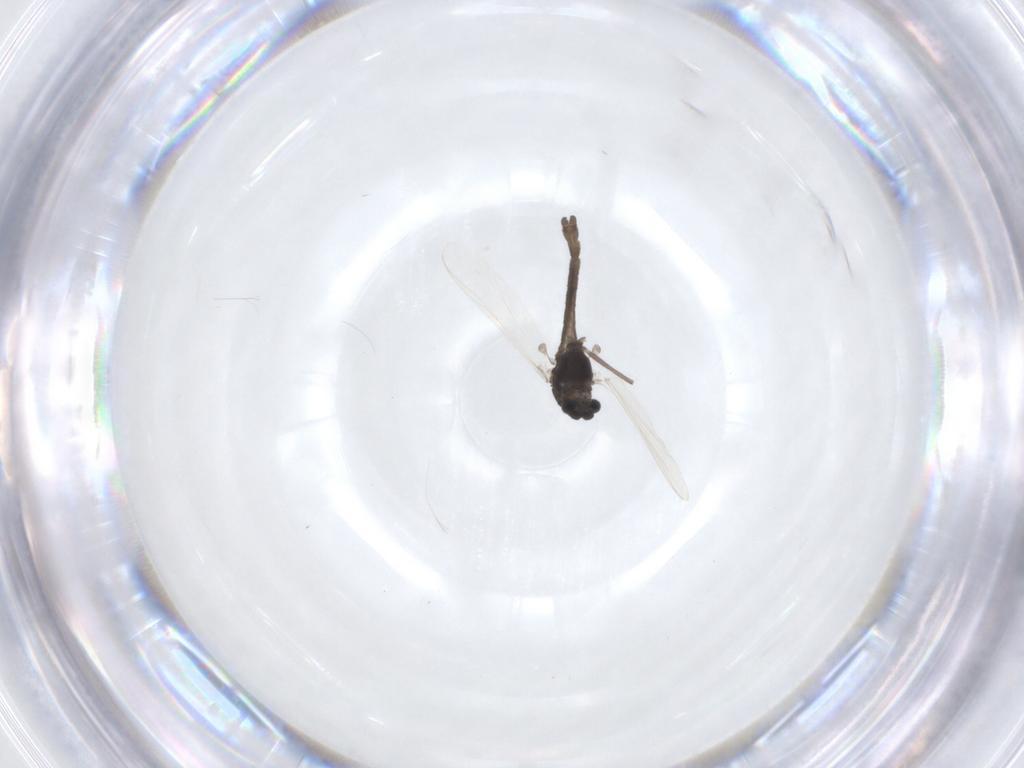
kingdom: Animalia
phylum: Arthropoda
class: Insecta
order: Diptera
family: Chironomidae
